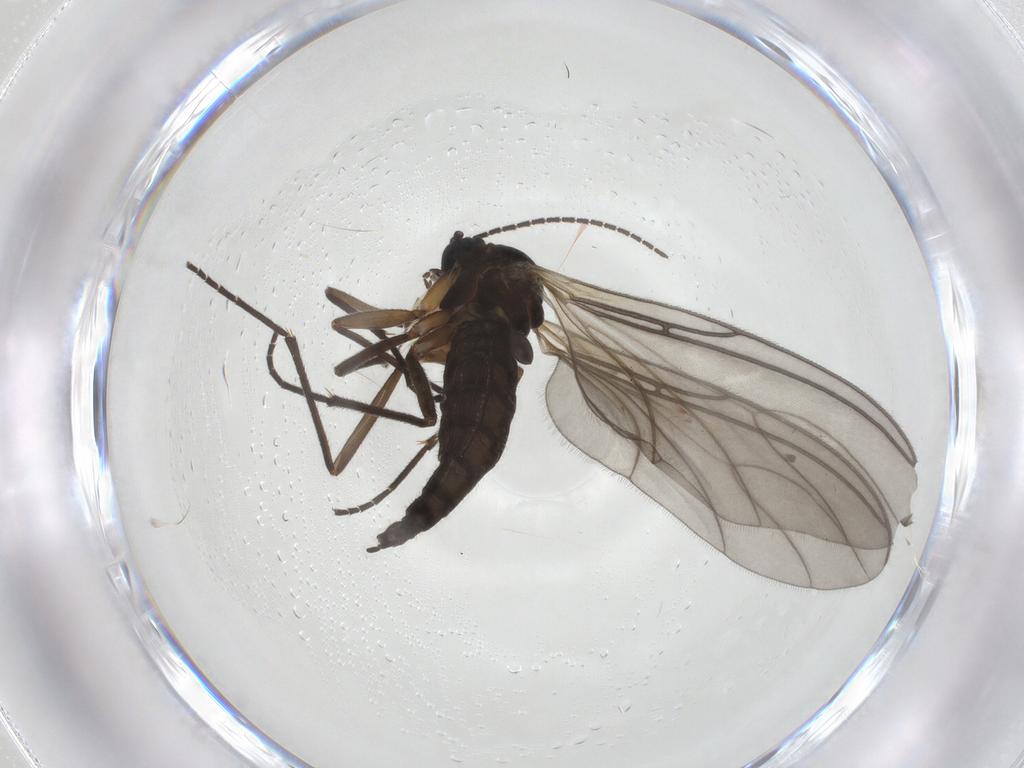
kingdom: Animalia
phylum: Arthropoda
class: Insecta
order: Diptera
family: Sciaridae
